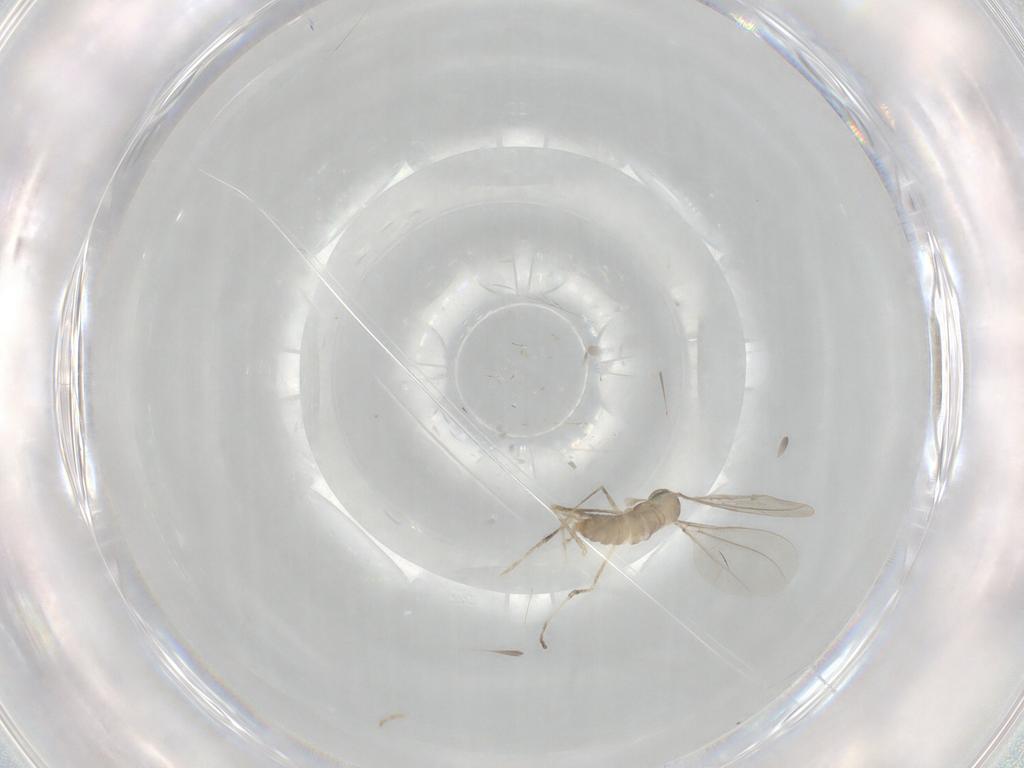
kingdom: Animalia
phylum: Arthropoda
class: Insecta
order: Diptera
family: Cecidomyiidae
